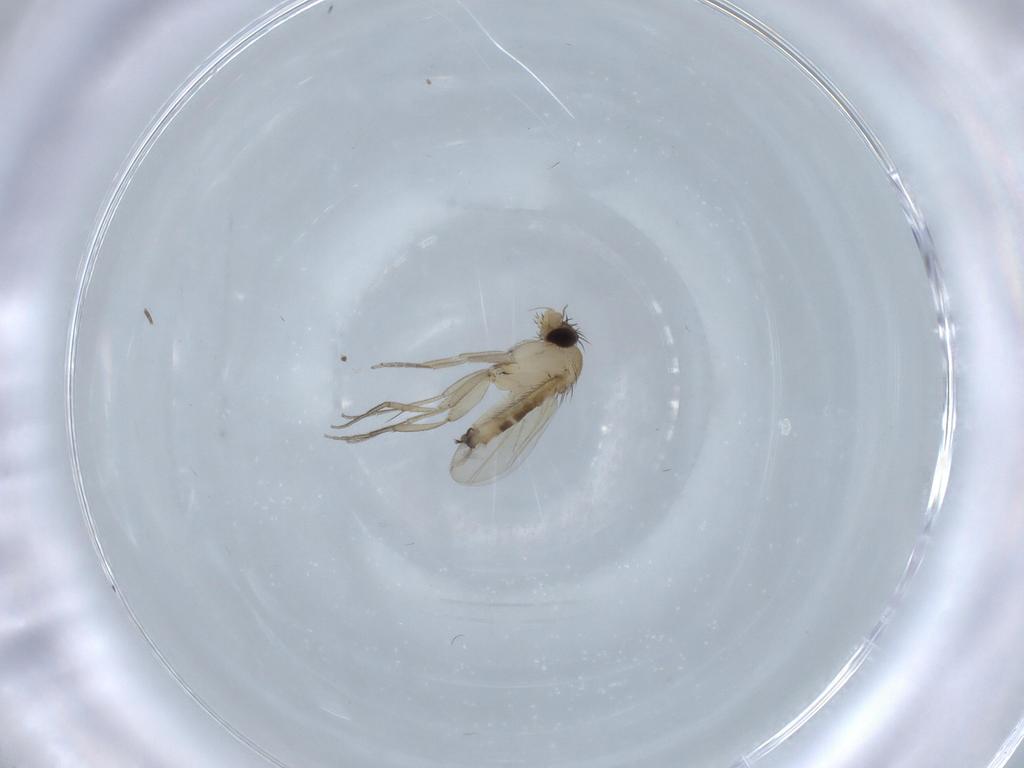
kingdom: Animalia
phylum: Arthropoda
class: Insecta
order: Diptera
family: Phoridae
